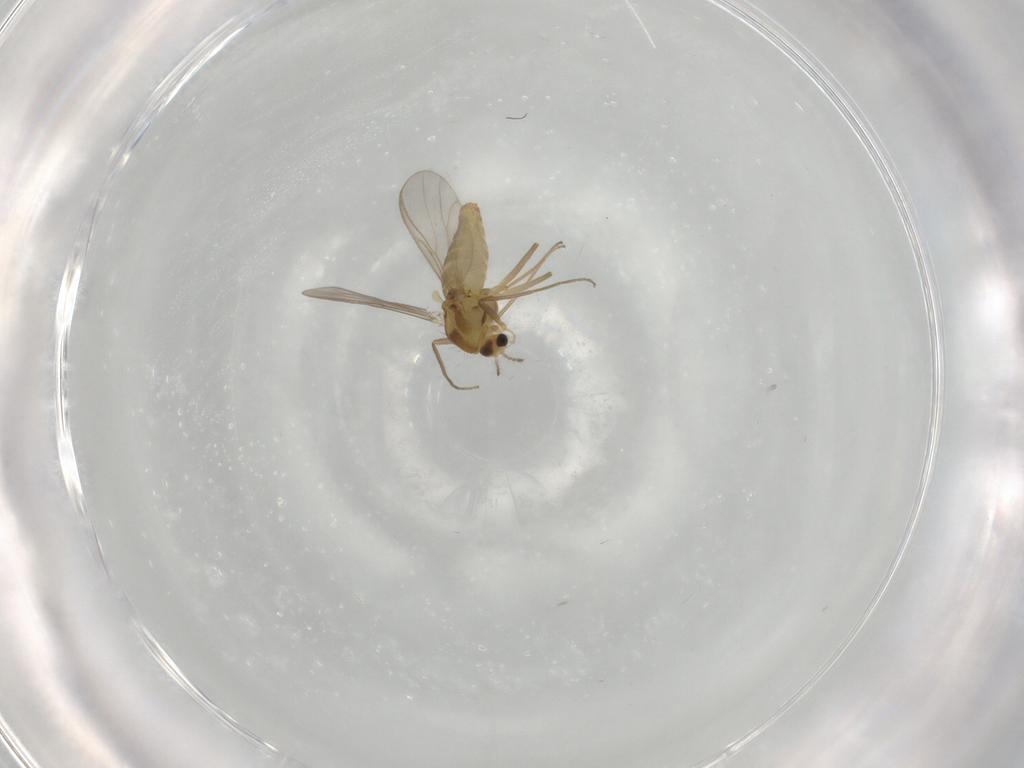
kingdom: Animalia
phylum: Arthropoda
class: Insecta
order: Diptera
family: Chironomidae
